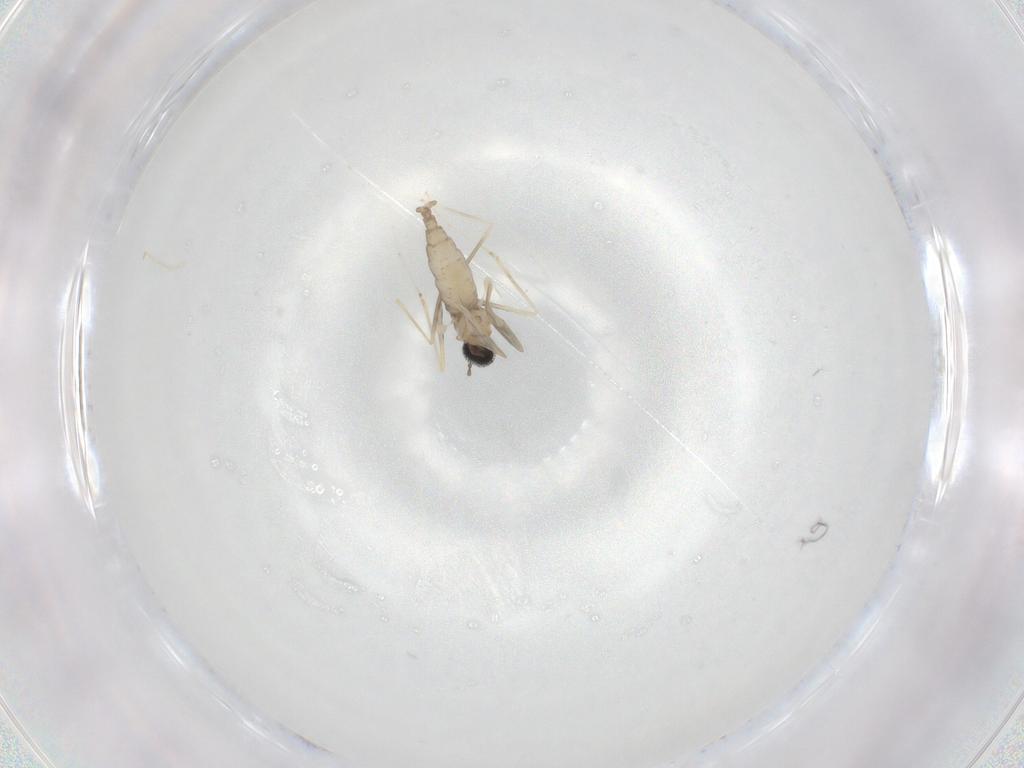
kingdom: Animalia
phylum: Arthropoda
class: Insecta
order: Diptera
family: Cecidomyiidae
